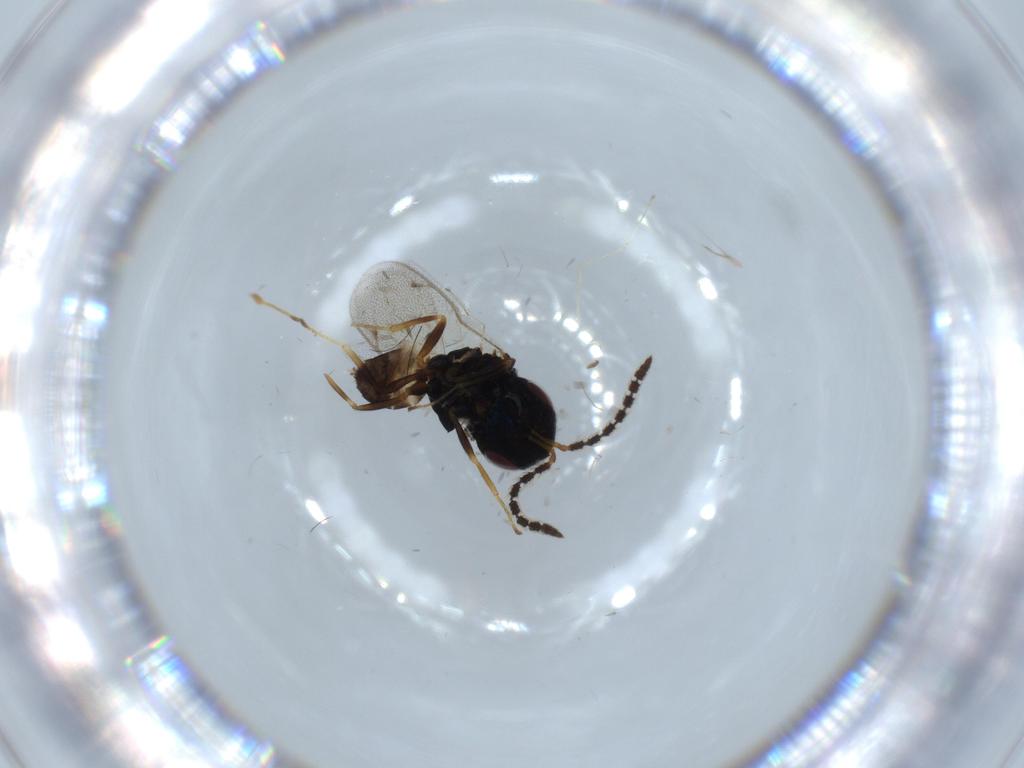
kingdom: Animalia
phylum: Arthropoda
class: Insecta
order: Hymenoptera
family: Pteromalidae
